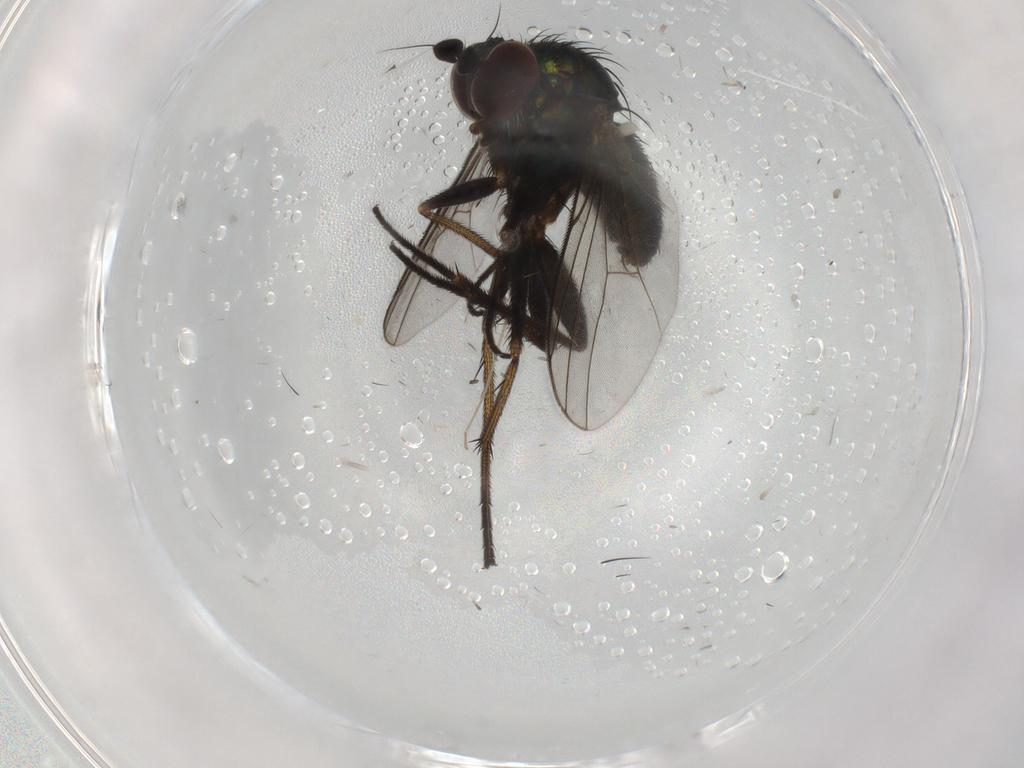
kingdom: Animalia
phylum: Arthropoda
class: Insecta
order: Diptera
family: Dolichopodidae
